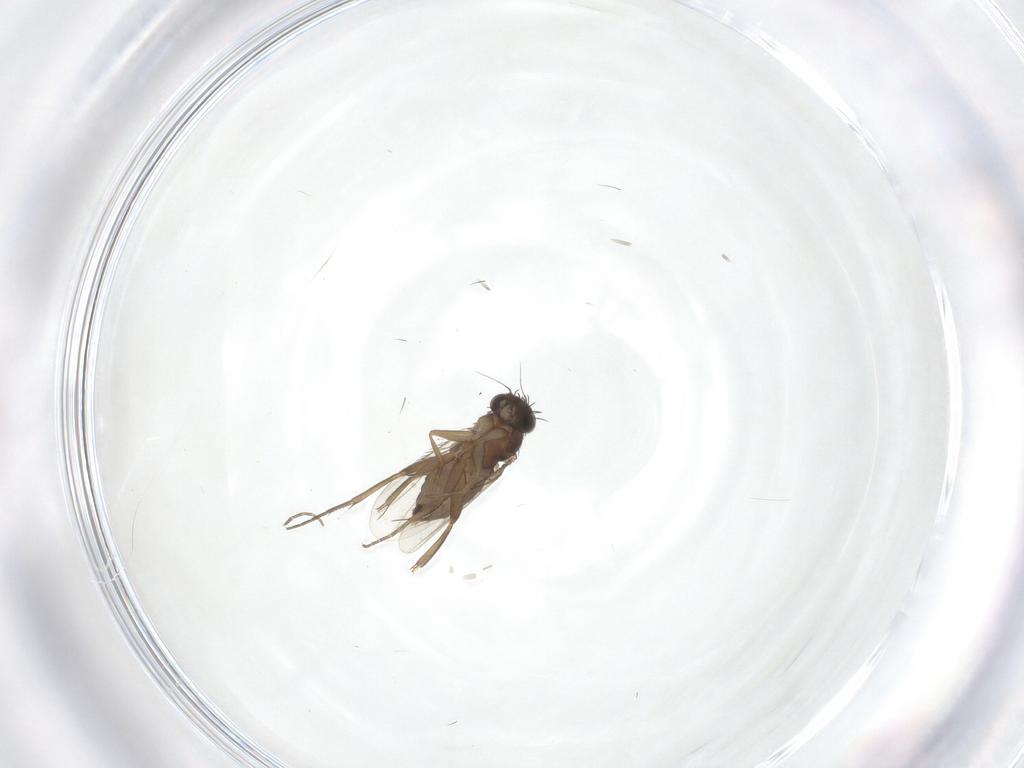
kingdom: Animalia
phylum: Arthropoda
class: Insecta
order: Diptera
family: Phoridae
